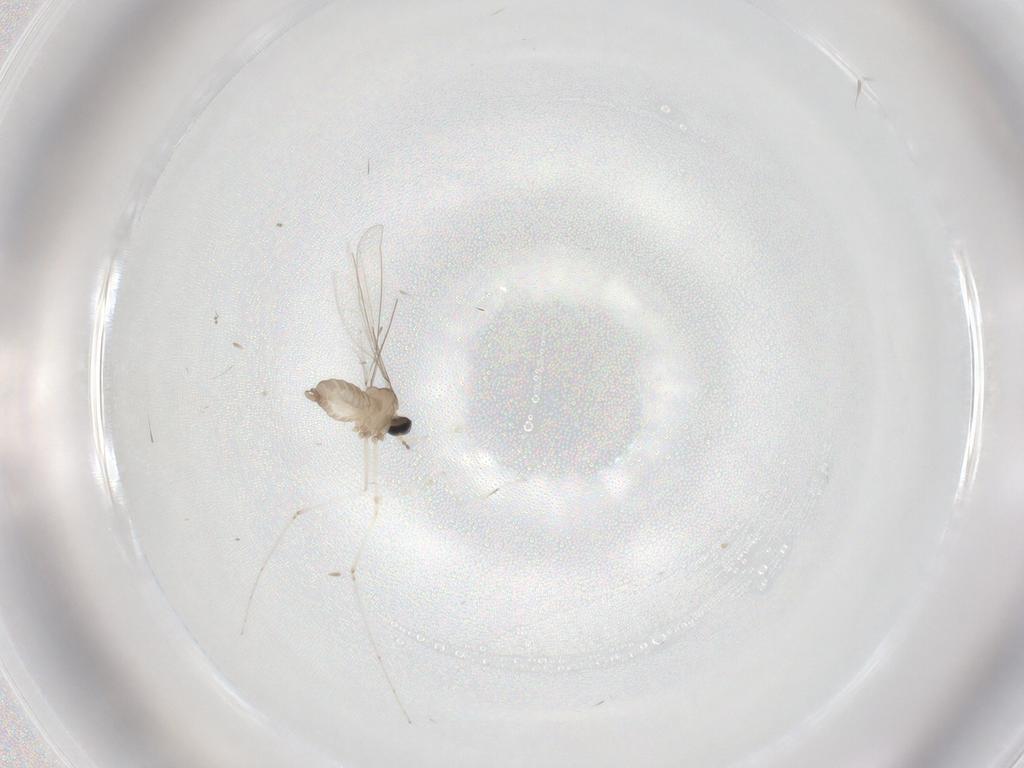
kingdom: Animalia
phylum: Arthropoda
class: Insecta
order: Diptera
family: Cecidomyiidae
